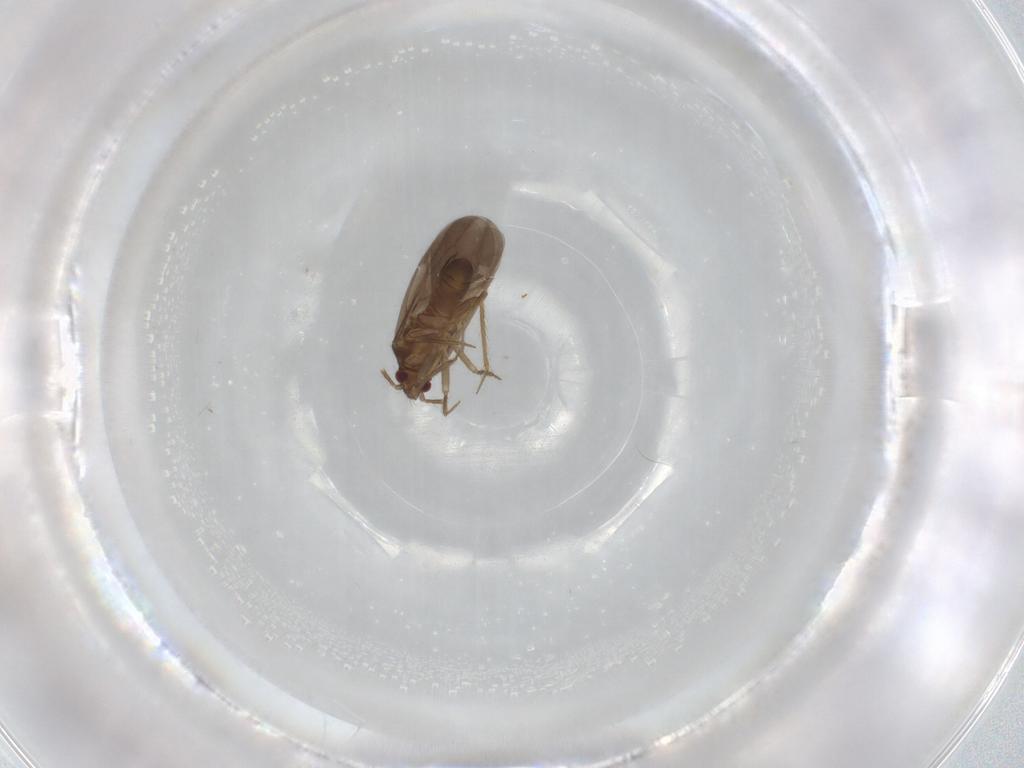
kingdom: Animalia
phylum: Arthropoda
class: Insecta
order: Hemiptera
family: Ceratocombidae
